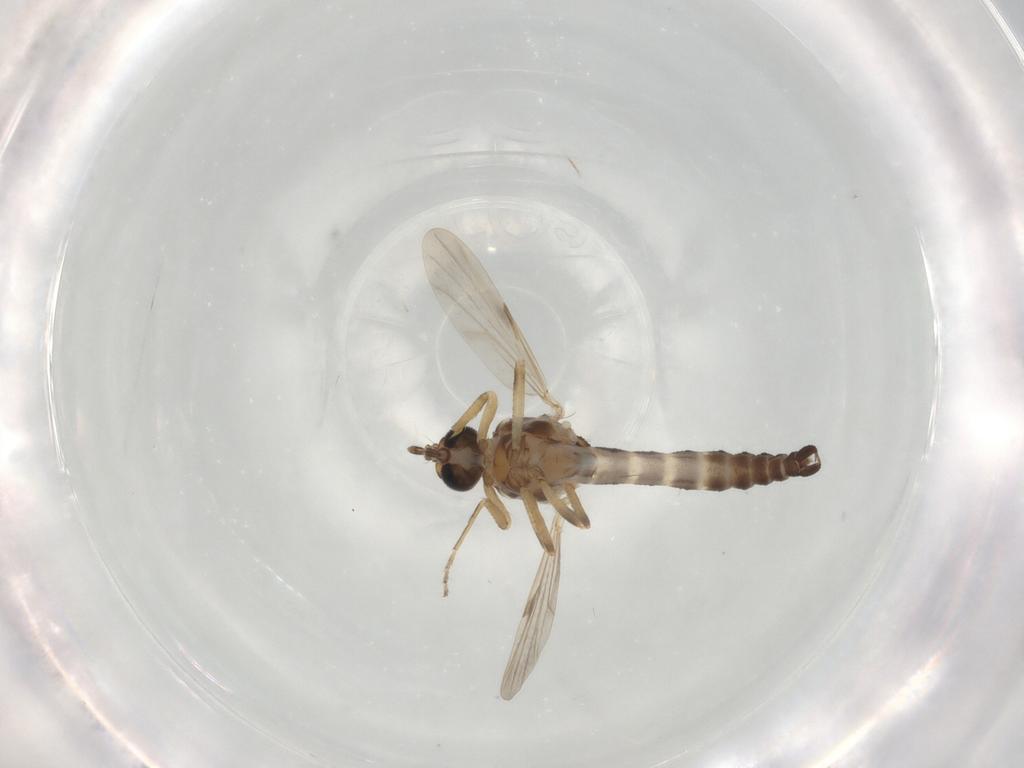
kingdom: Animalia
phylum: Arthropoda
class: Insecta
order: Diptera
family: Ceratopogonidae
